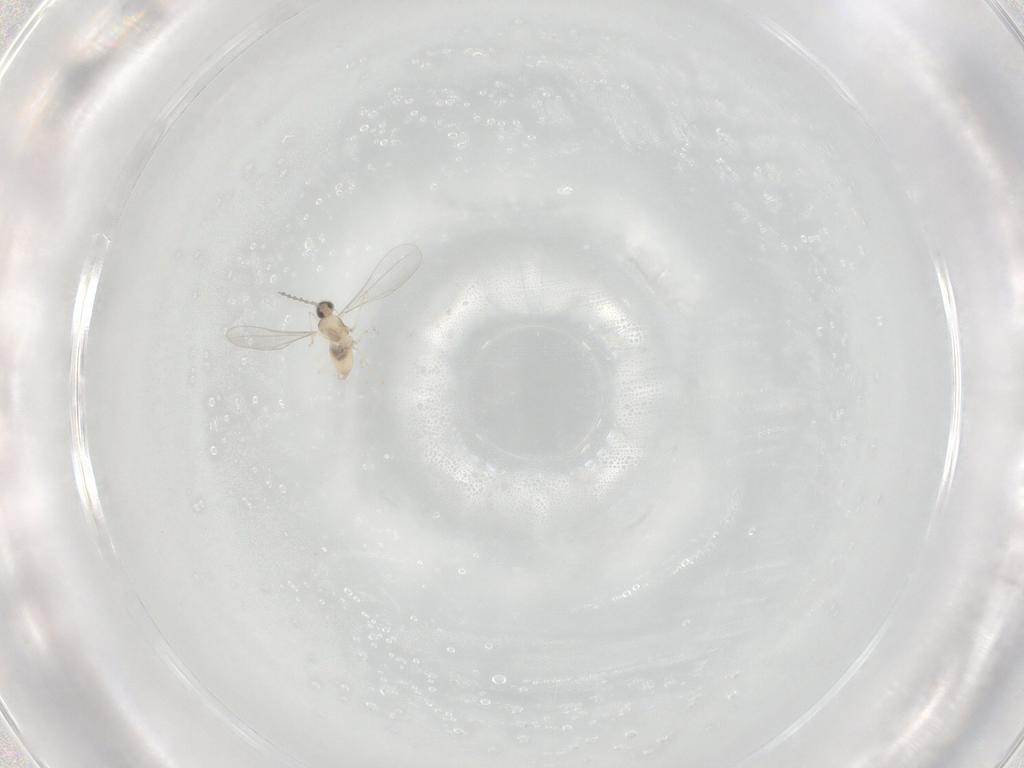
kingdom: Animalia
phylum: Arthropoda
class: Insecta
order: Diptera
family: Cecidomyiidae
